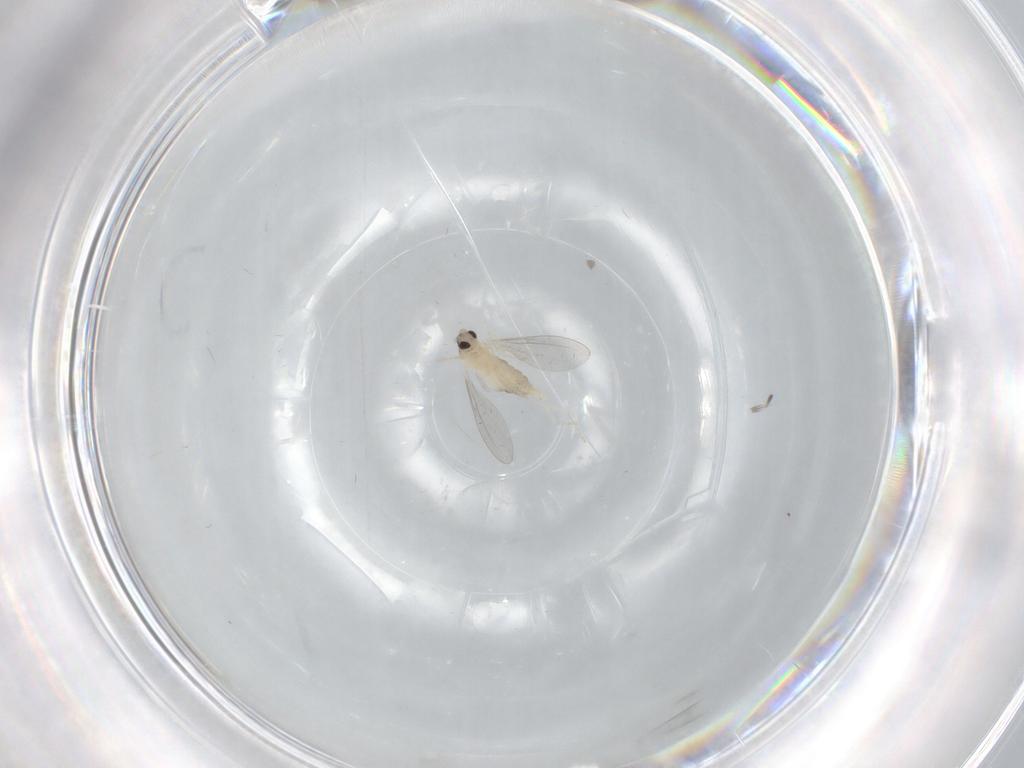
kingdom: Animalia
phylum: Arthropoda
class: Insecta
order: Diptera
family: Cecidomyiidae
